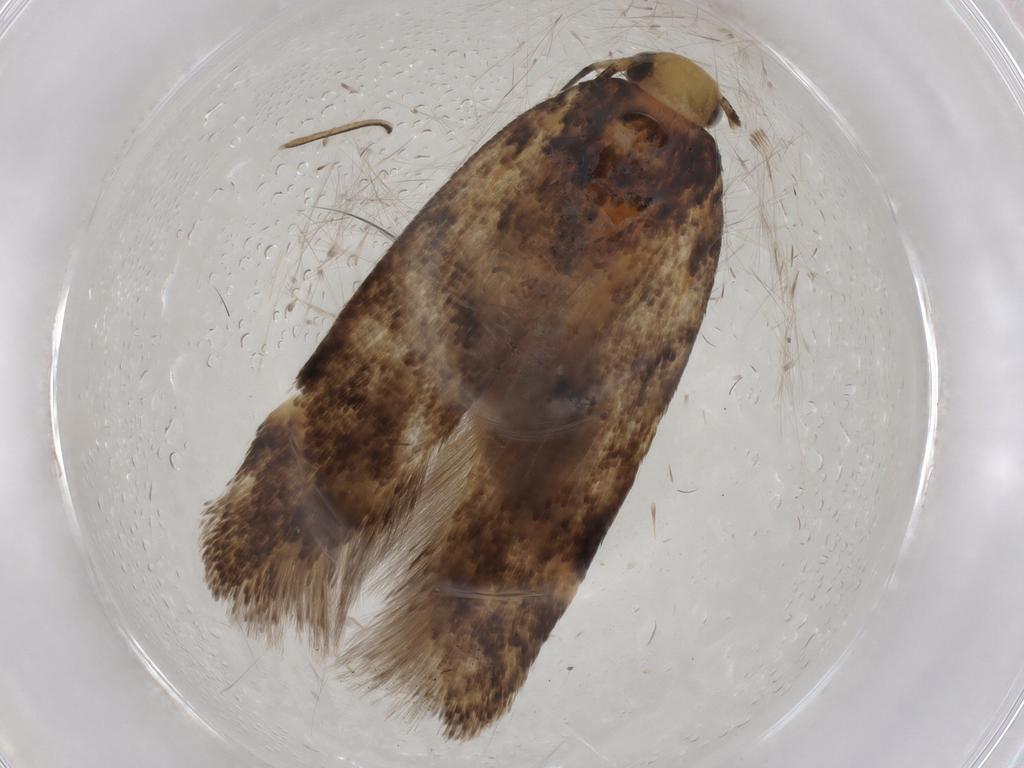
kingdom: Animalia
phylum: Arthropoda
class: Insecta
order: Lepidoptera
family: Gelechiidae
